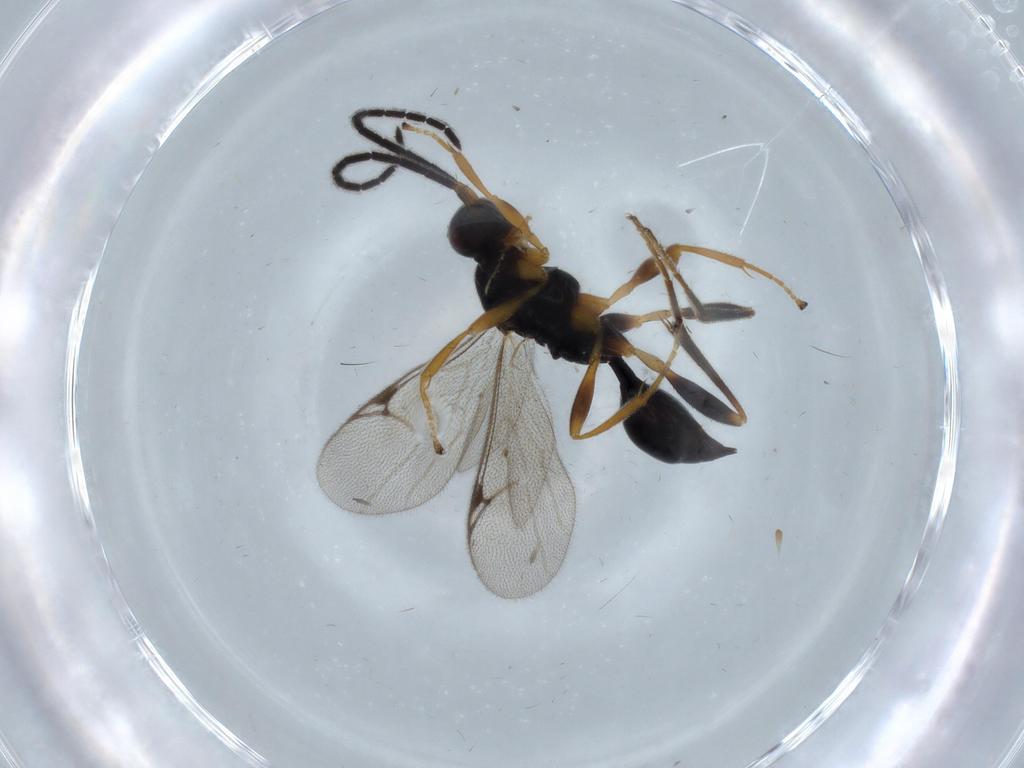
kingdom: Animalia
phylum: Arthropoda
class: Insecta
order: Hymenoptera
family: Proctotrupidae
